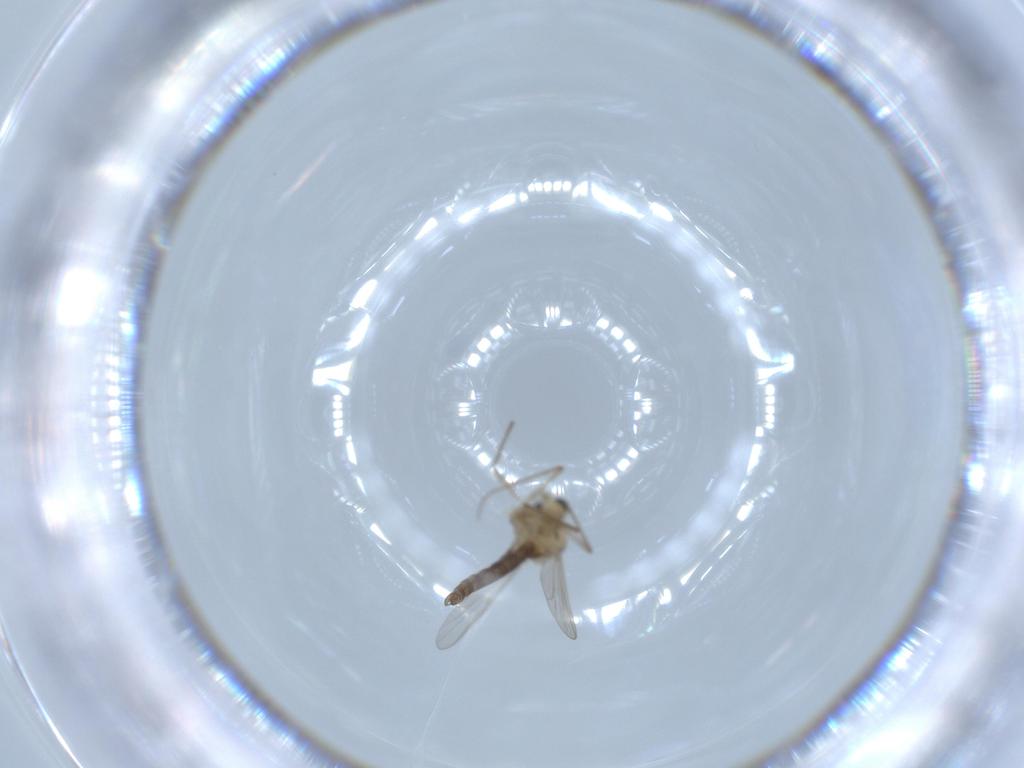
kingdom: Animalia
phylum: Arthropoda
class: Insecta
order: Diptera
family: Chironomidae
